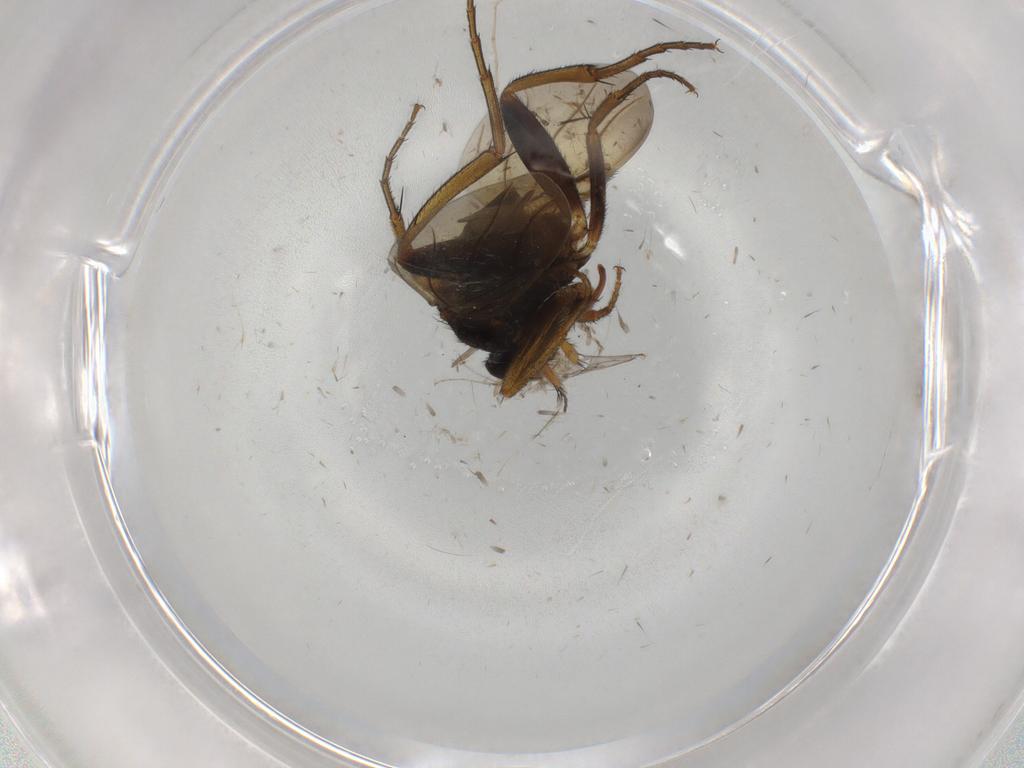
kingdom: Animalia
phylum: Arthropoda
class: Insecta
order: Diptera
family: Phoridae
